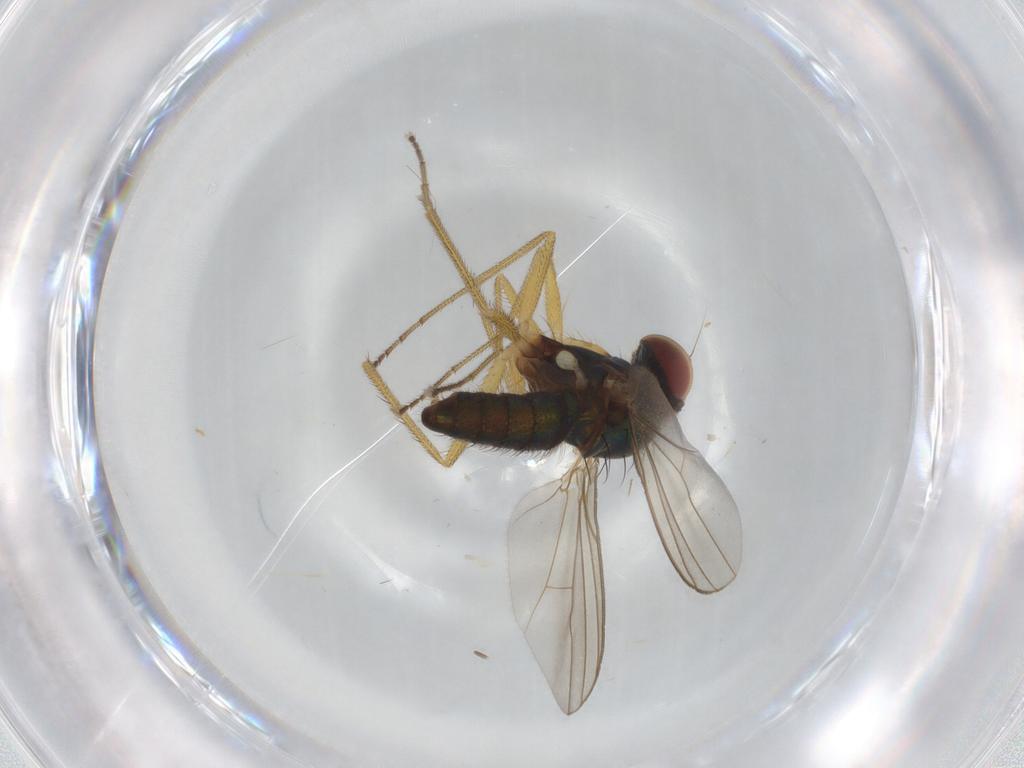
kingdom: Animalia
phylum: Arthropoda
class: Insecta
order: Diptera
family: Dolichopodidae
